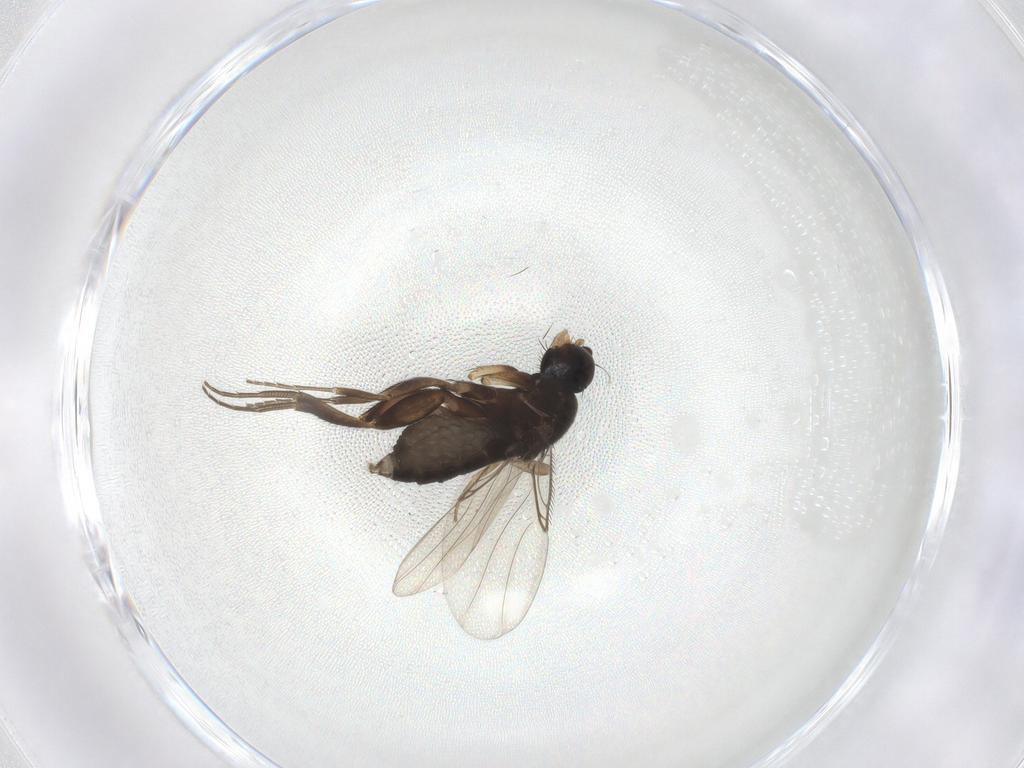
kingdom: Animalia
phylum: Arthropoda
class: Insecta
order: Diptera
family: Phoridae
